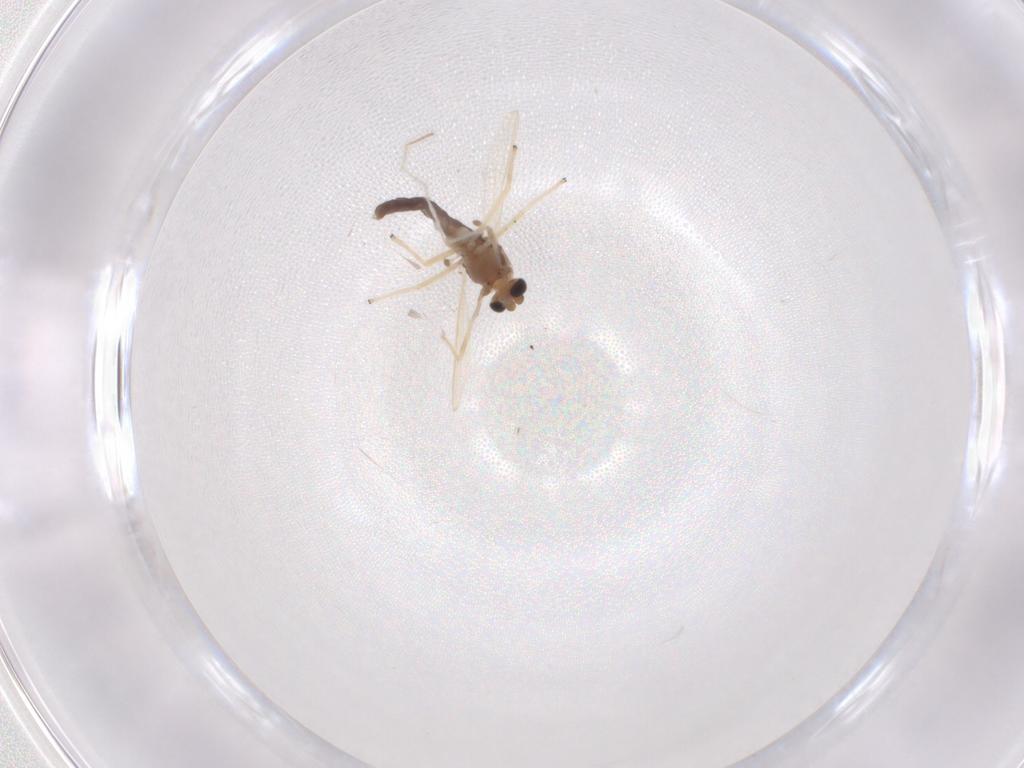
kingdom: Animalia
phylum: Arthropoda
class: Insecta
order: Diptera
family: Chironomidae
